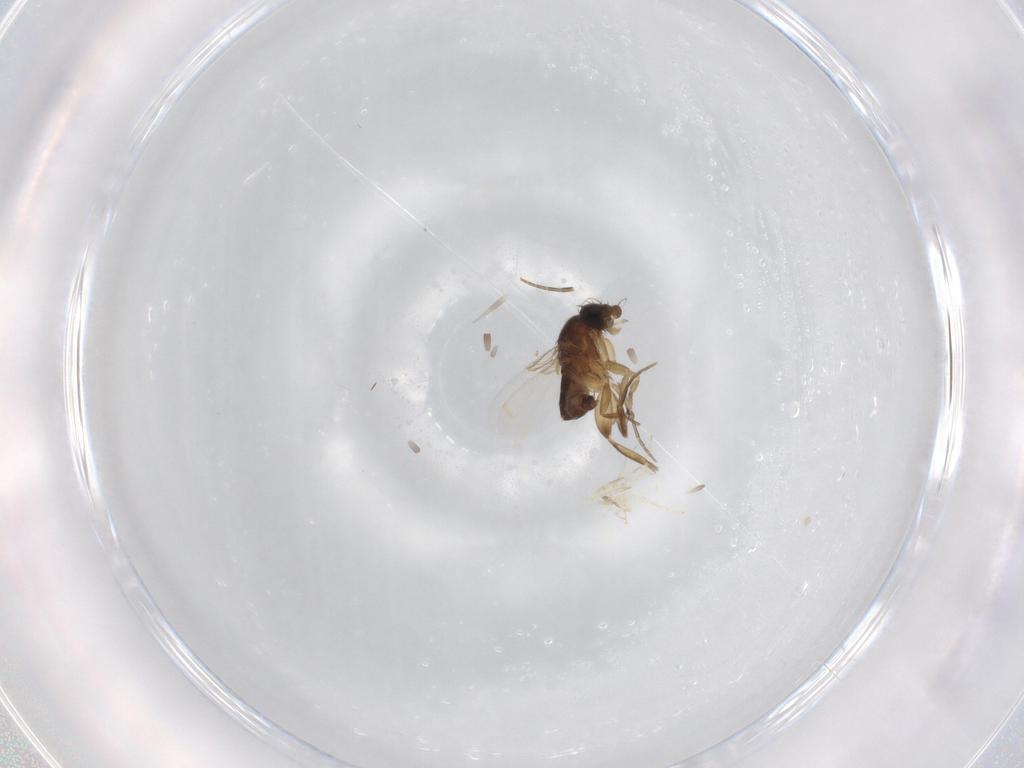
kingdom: Animalia
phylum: Arthropoda
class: Insecta
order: Diptera
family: Phoridae
